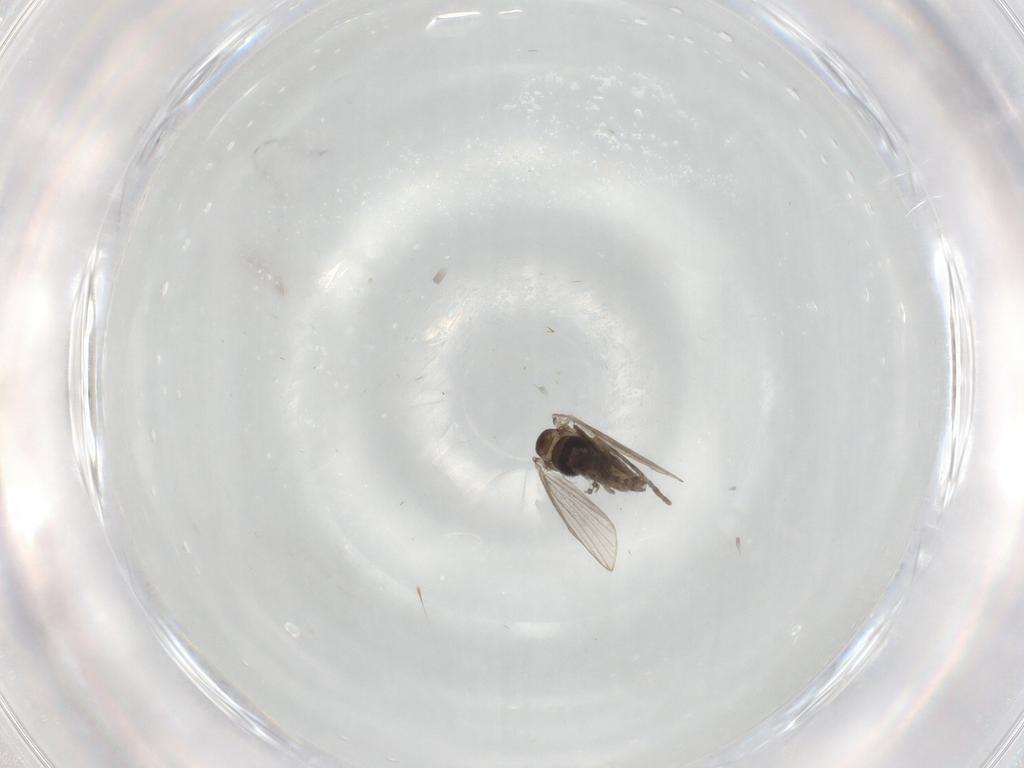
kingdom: Animalia
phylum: Arthropoda
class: Insecta
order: Diptera
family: Psychodidae
